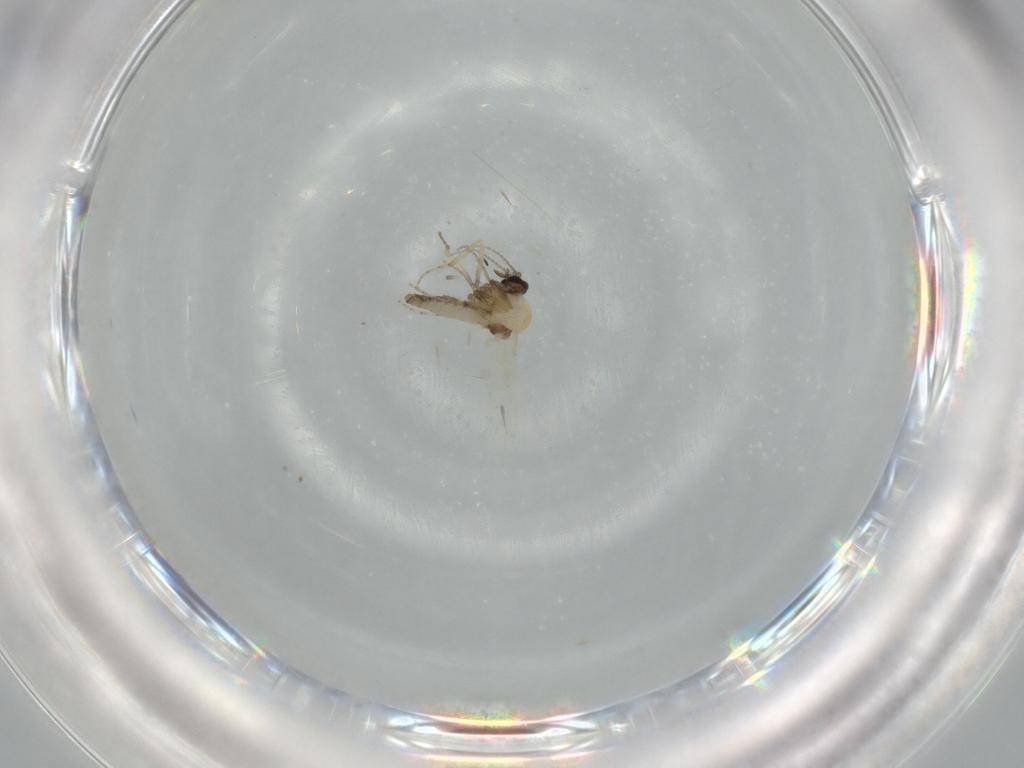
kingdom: Animalia
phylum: Arthropoda
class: Insecta
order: Diptera
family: Ceratopogonidae
